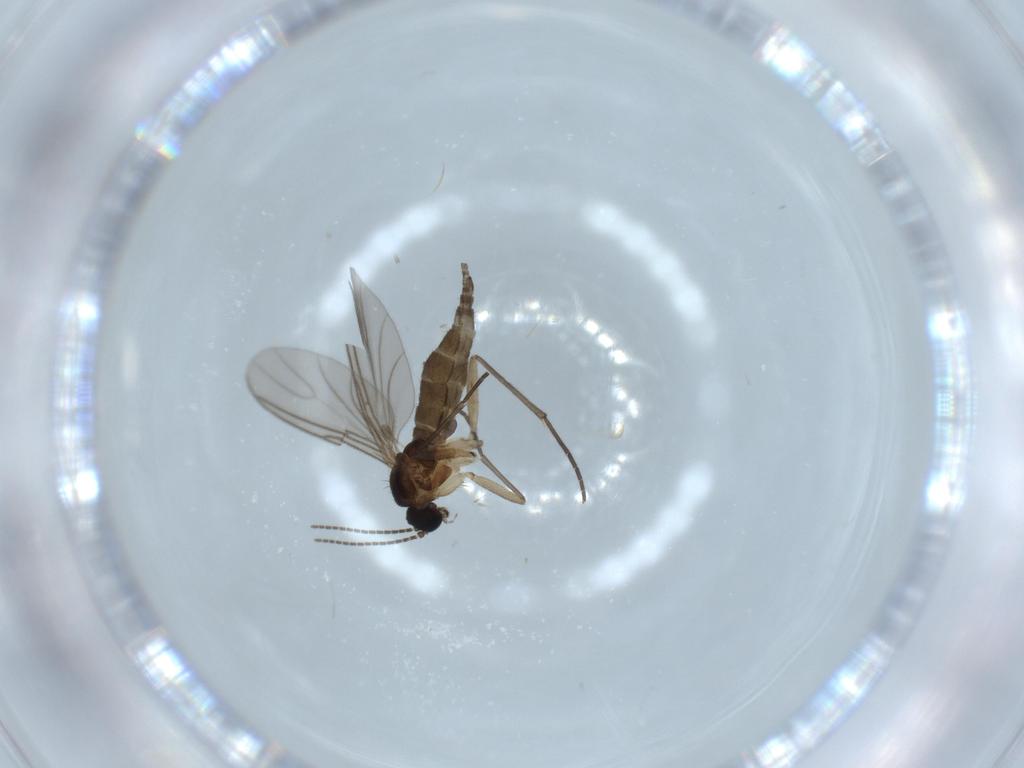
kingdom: Animalia
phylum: Arthropoda
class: Insecta
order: Diptera
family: Sciaridae
